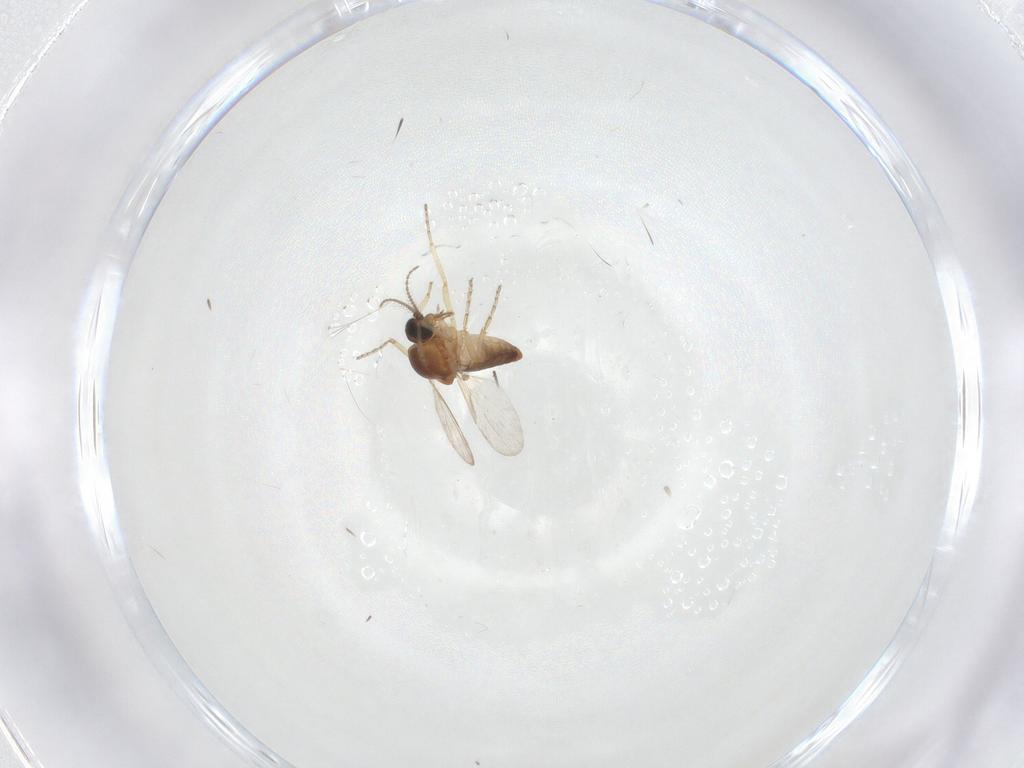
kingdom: Animalia
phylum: Arthropoda
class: Insecta
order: Diptera
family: Ceratopogonidae
